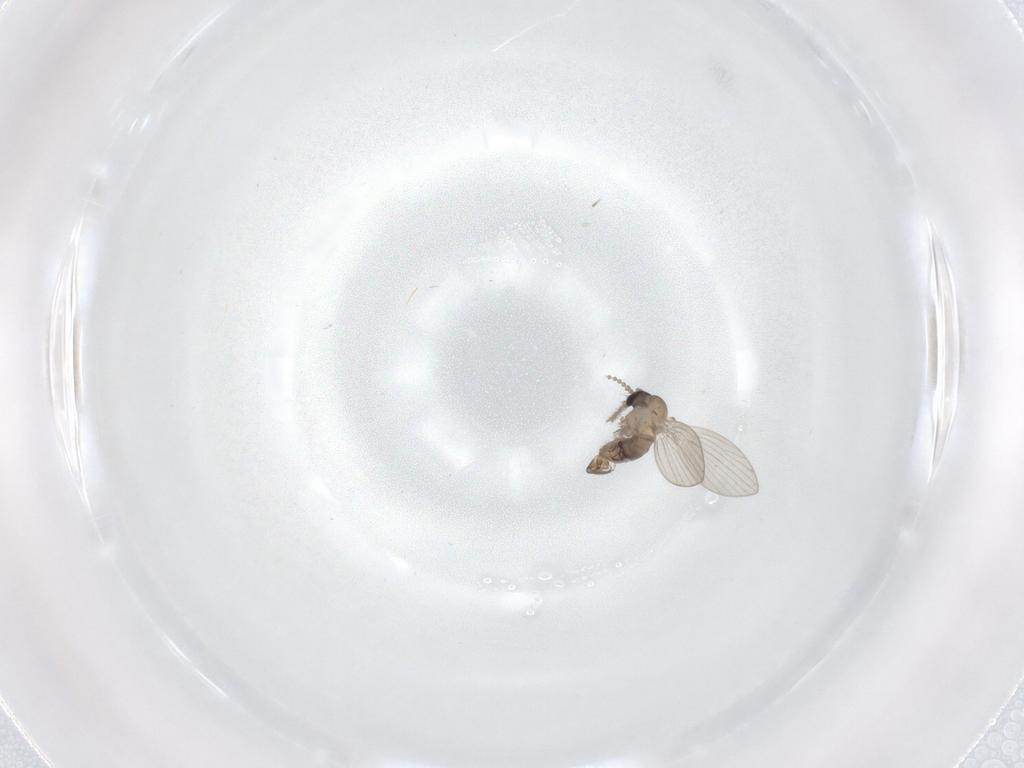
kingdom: Animalia
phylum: Arthropoda
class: Insecta
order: Diptera
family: Psychodidae
